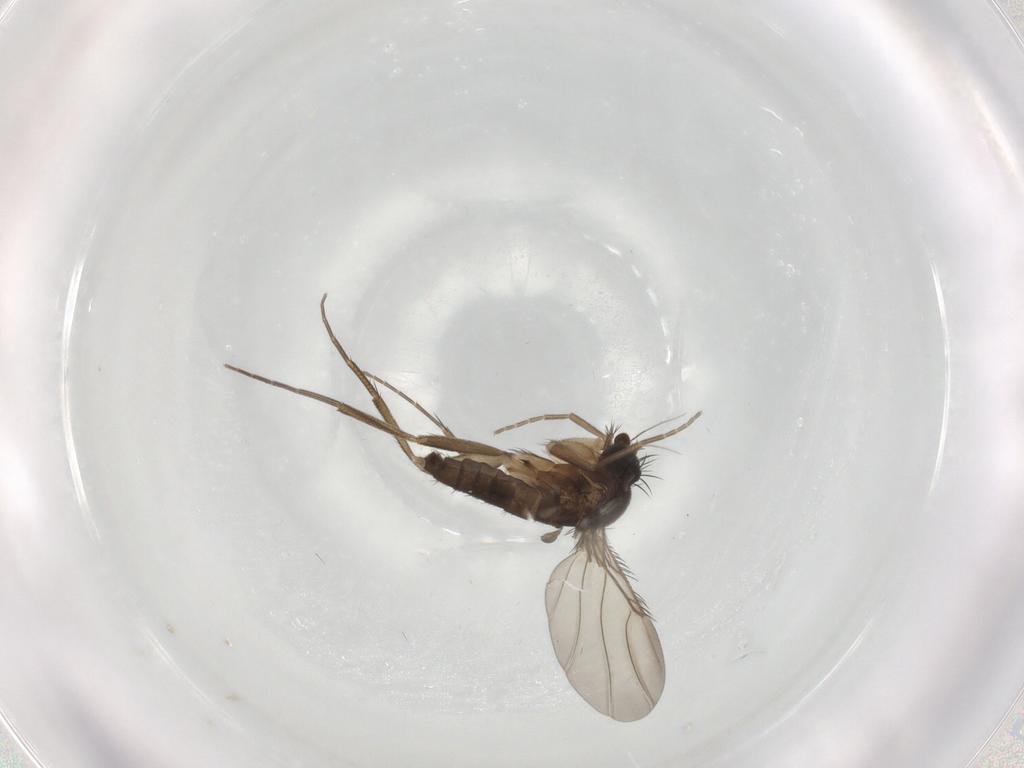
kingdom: Animalia
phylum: Arthropoda
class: Insecta
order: Diptera
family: Phoridae
